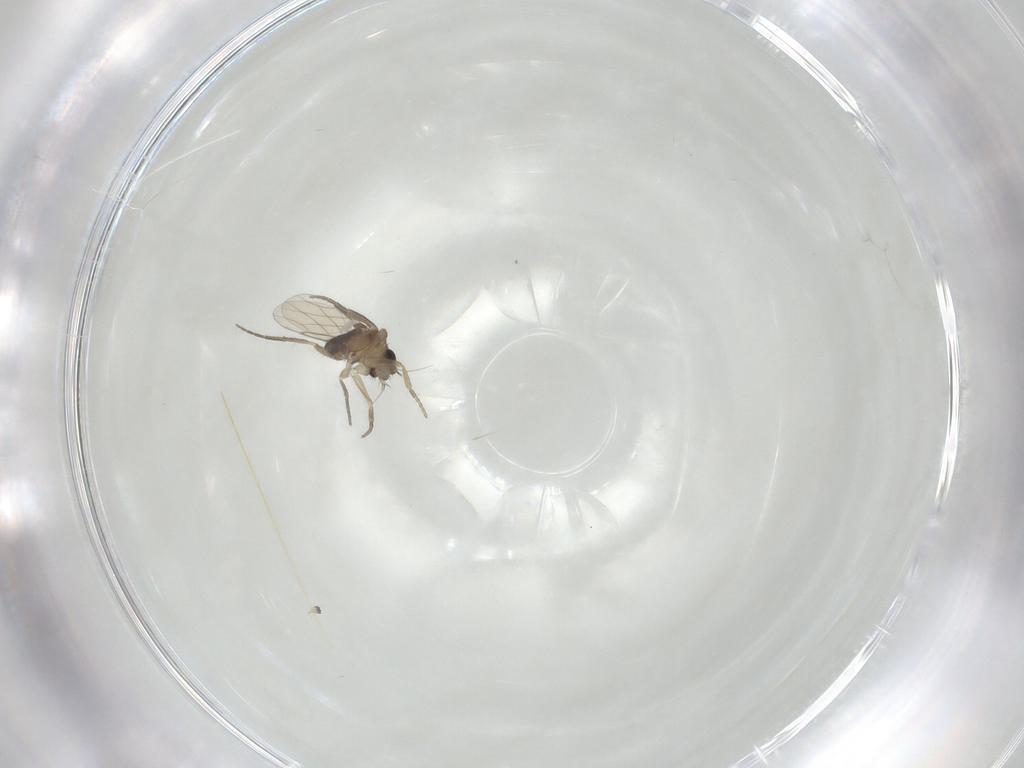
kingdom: Animalia
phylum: Arthropoda
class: Insecta
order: Diptera
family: Phoridae
